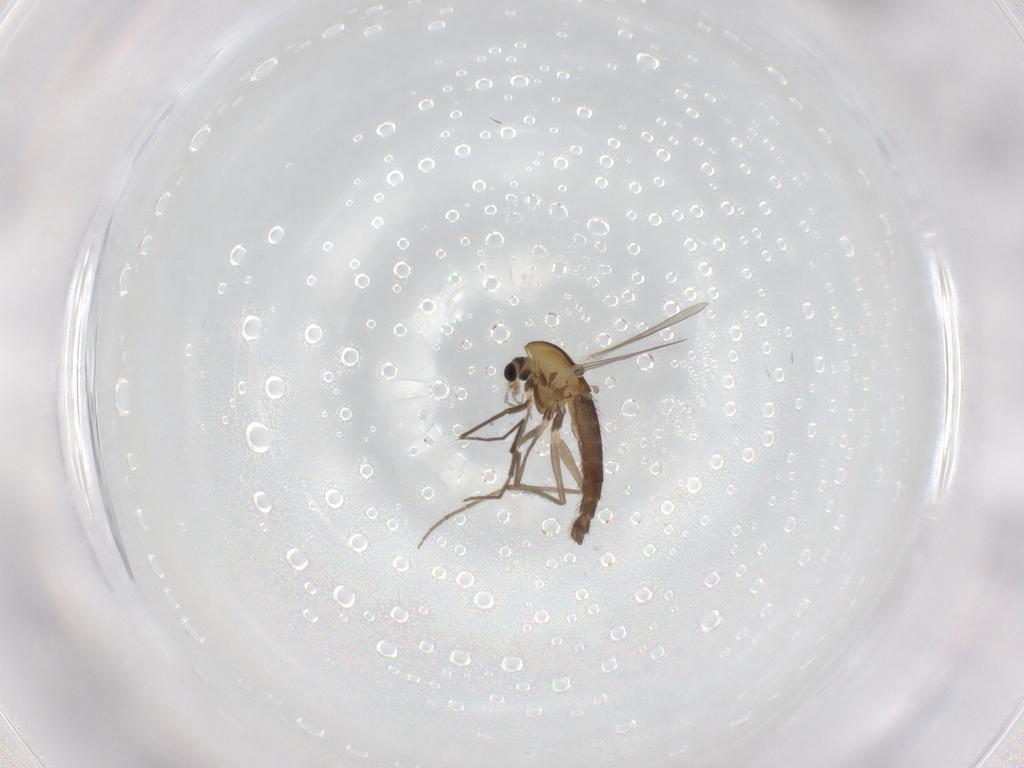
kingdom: Animalia
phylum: Arthropoda
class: Insecta
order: Diptera
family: Chironomidae
